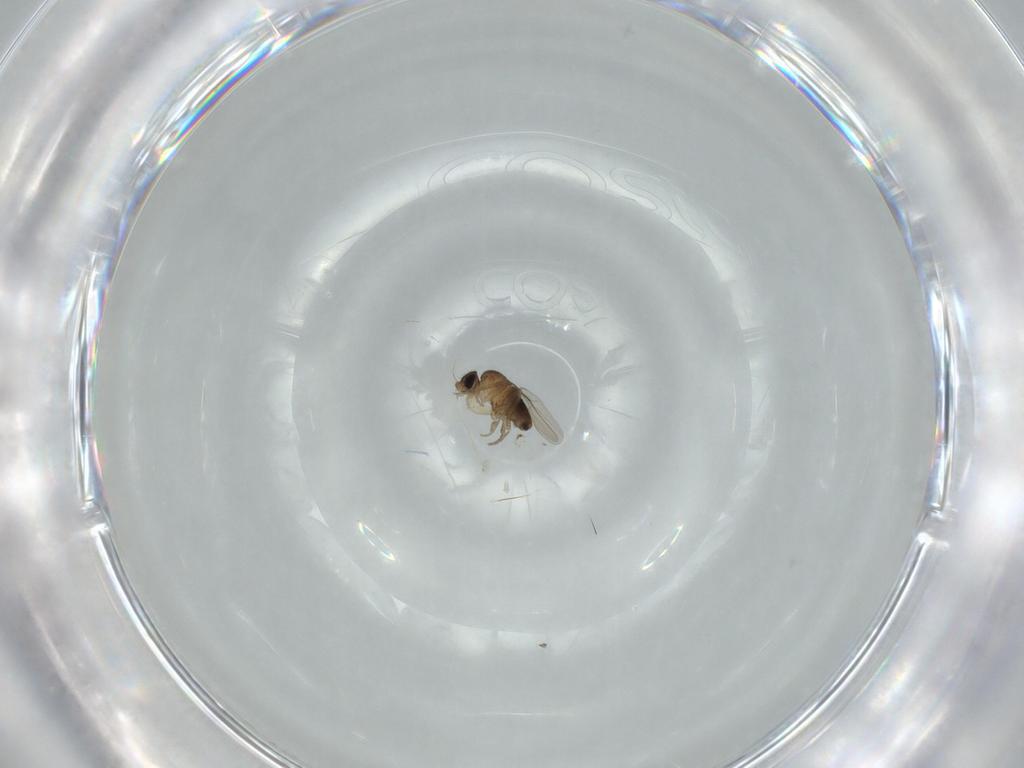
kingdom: Animalia
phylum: Arthropoda
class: Insecta
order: Diptera
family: Phoridae
